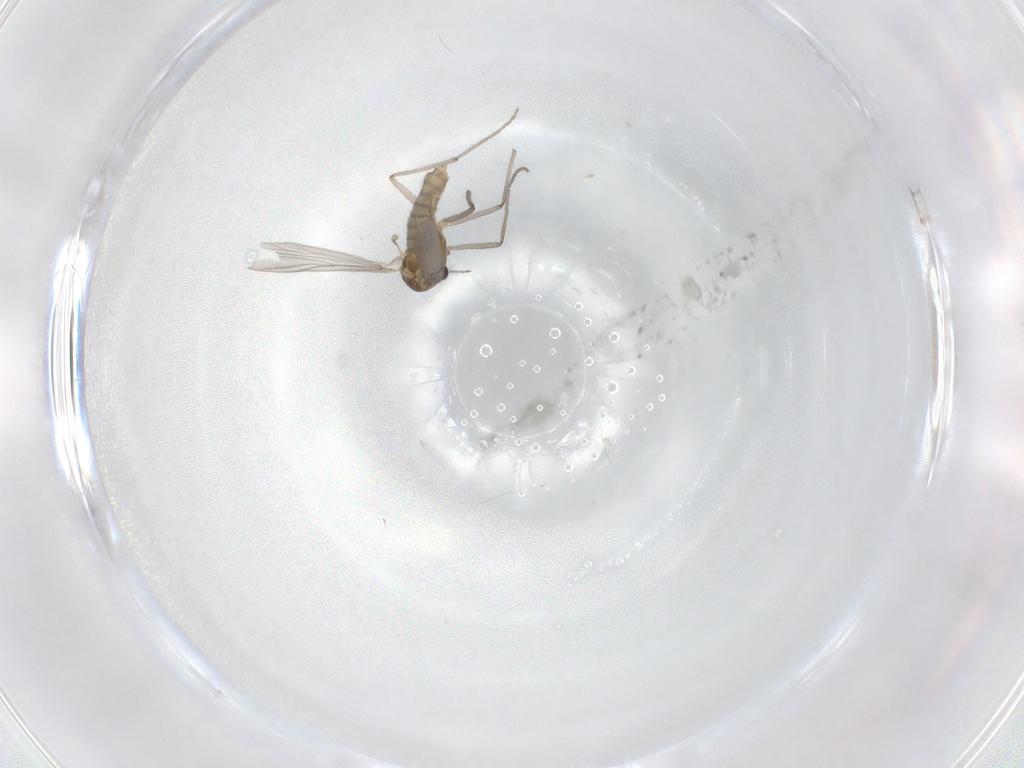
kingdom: Animalia
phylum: Arthropoda
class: Insecta
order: Diptera
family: Chironomidae
